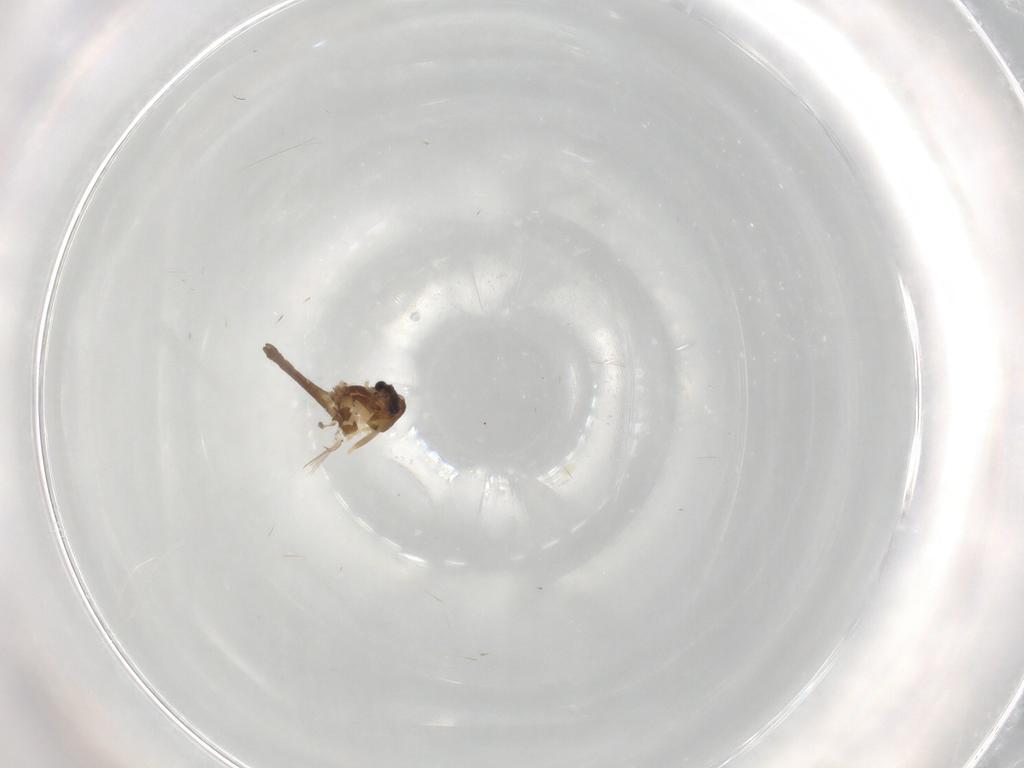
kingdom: Animalia
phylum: Arthropoda
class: Insecta
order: Diptera
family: Chironomidae
